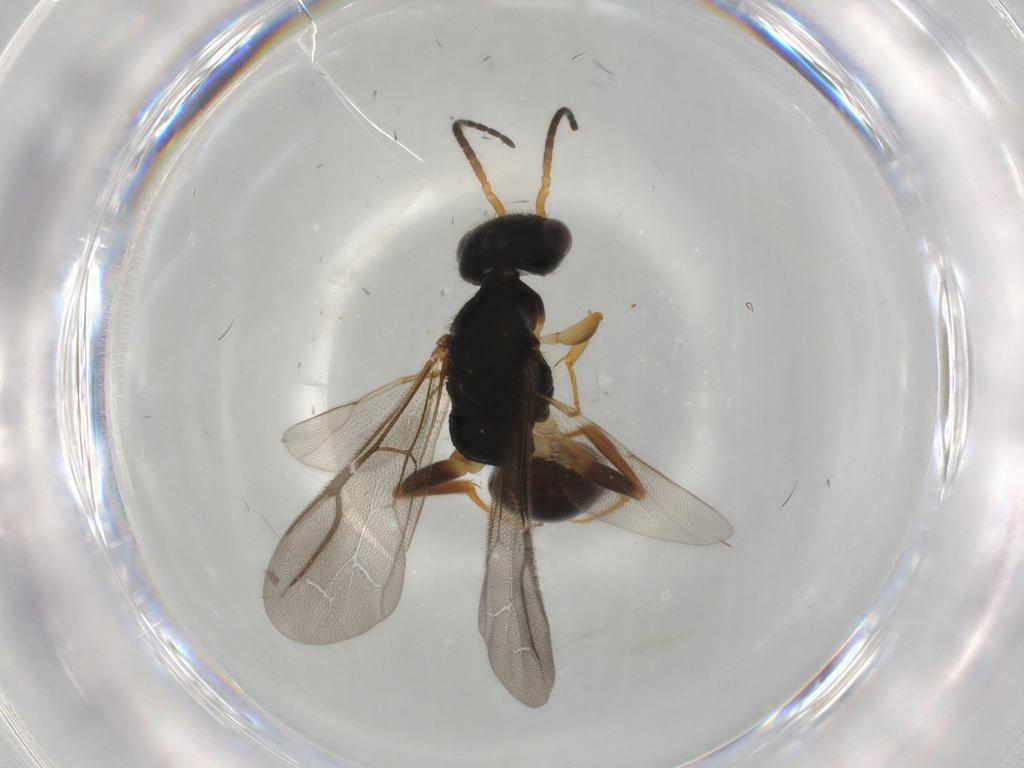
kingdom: Animalia
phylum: Arthropoda
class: Insecta
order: Hymenoptera
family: Bethylidae
